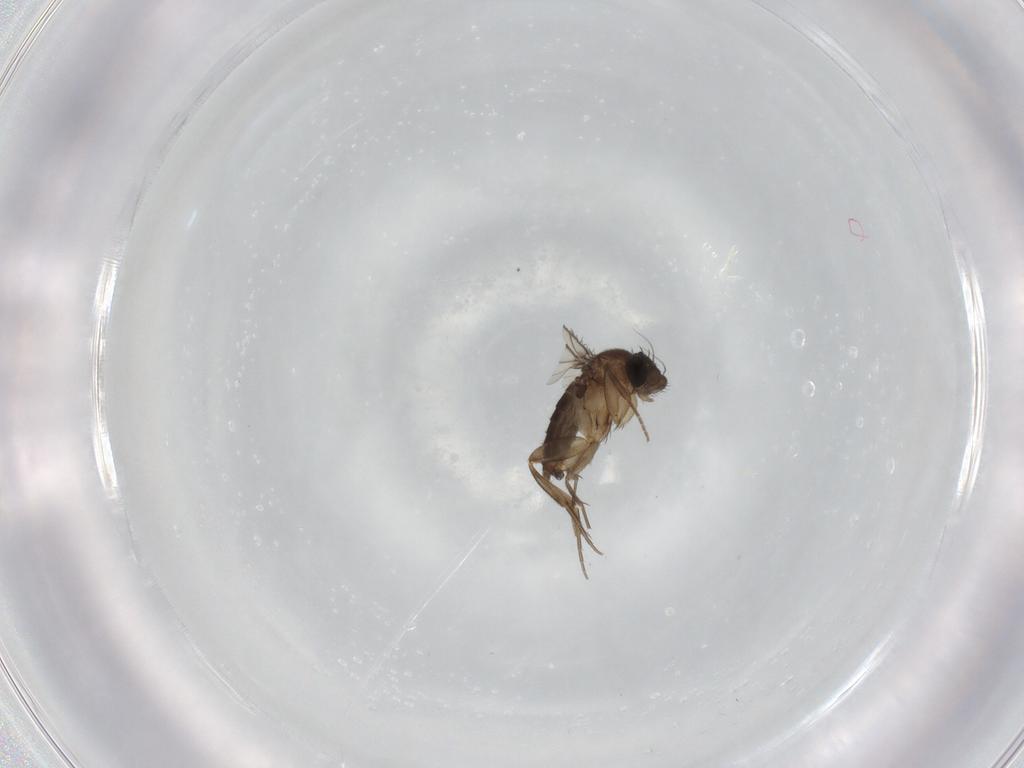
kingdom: Animalia
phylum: Arthropoda
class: Insecta
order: Diptera
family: Phoridae
